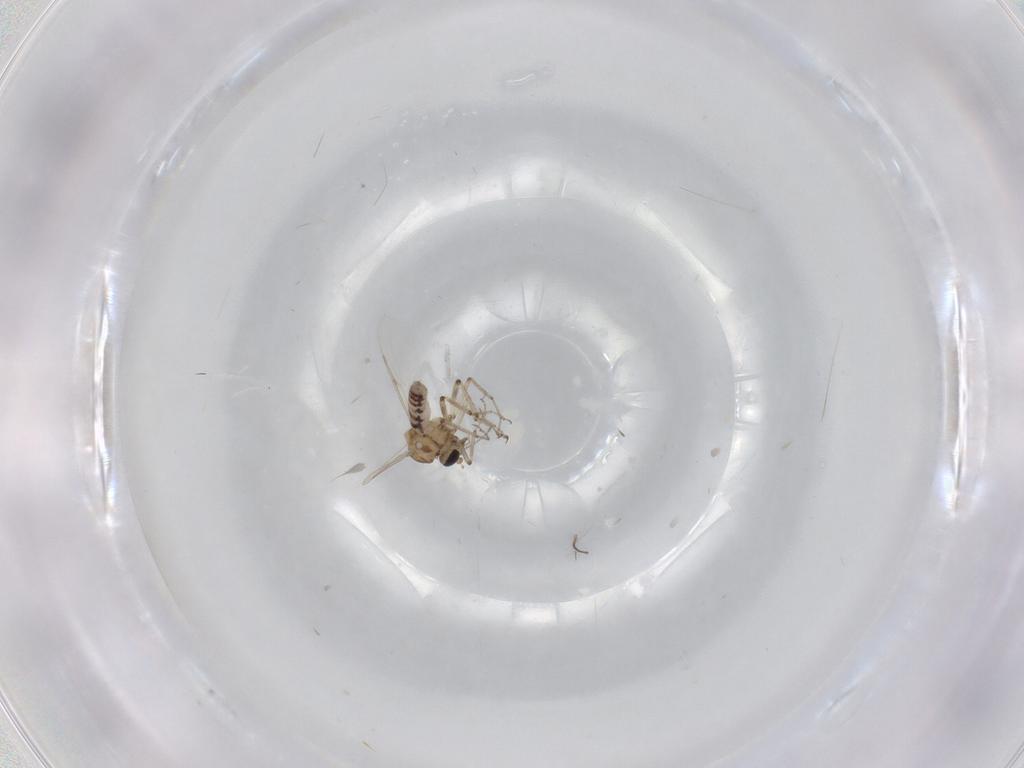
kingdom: Animalia
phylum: Arthropoda
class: Insecta
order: Diptera
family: Ceratopogonidae
